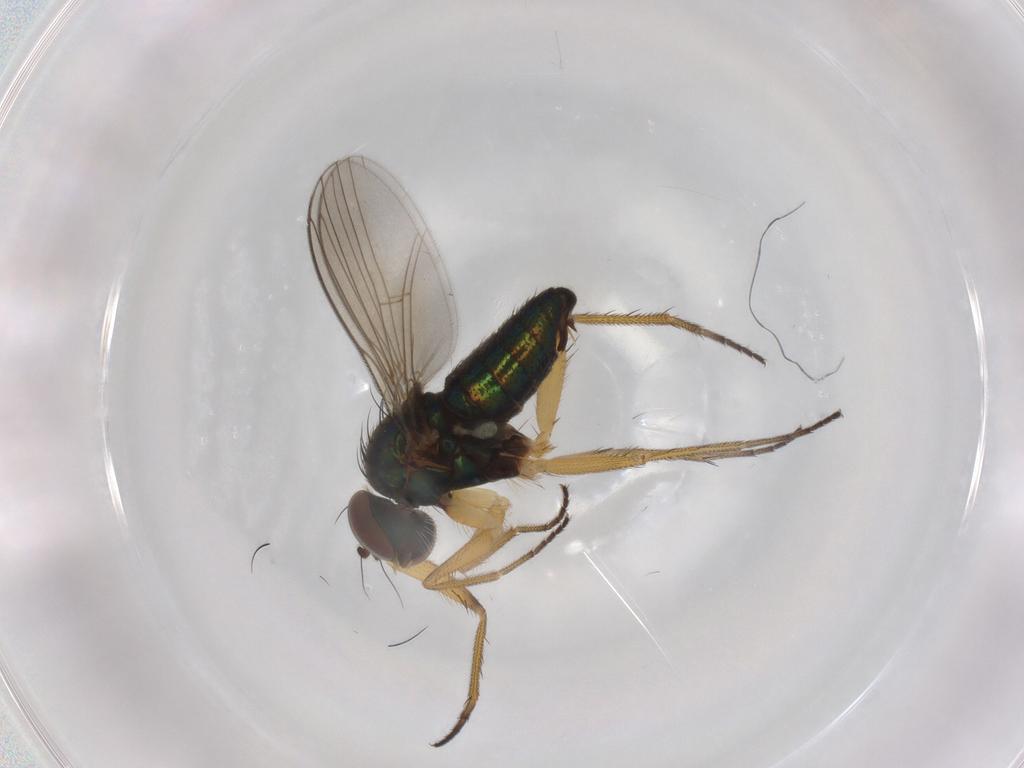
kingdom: Animalia
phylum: Arthropoda
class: Insecta
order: Diptera
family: Dolichopodidae
